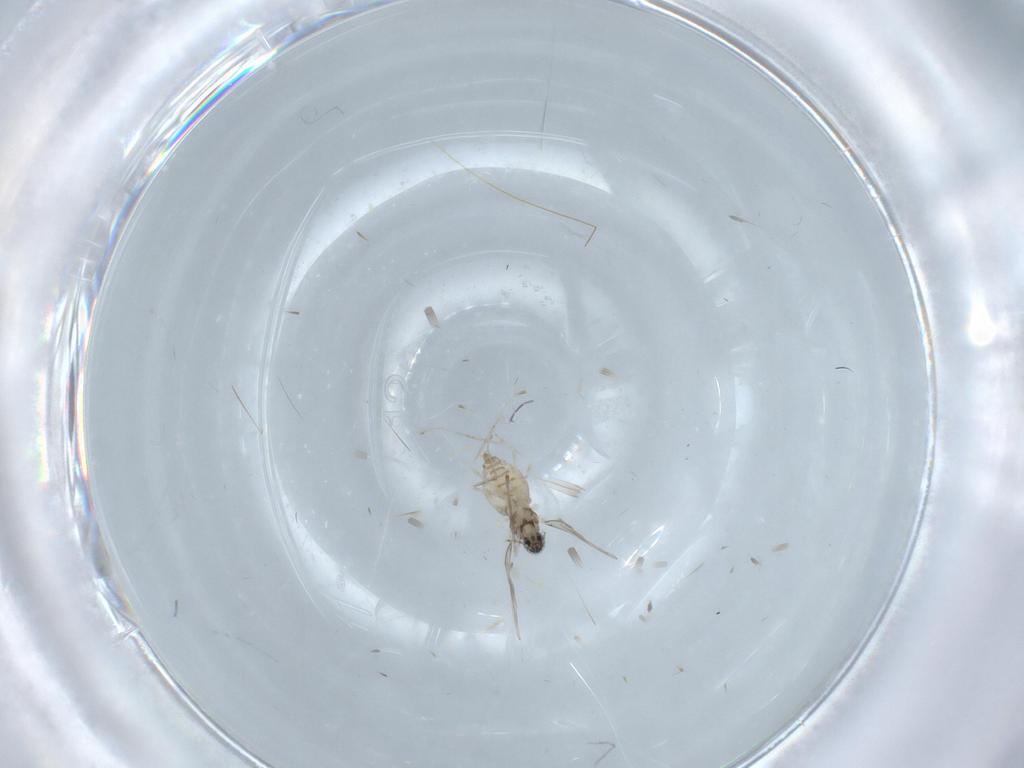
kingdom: Animalia
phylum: Arthropoda
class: Insecta
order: Diptera
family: Cecidomyiidae
